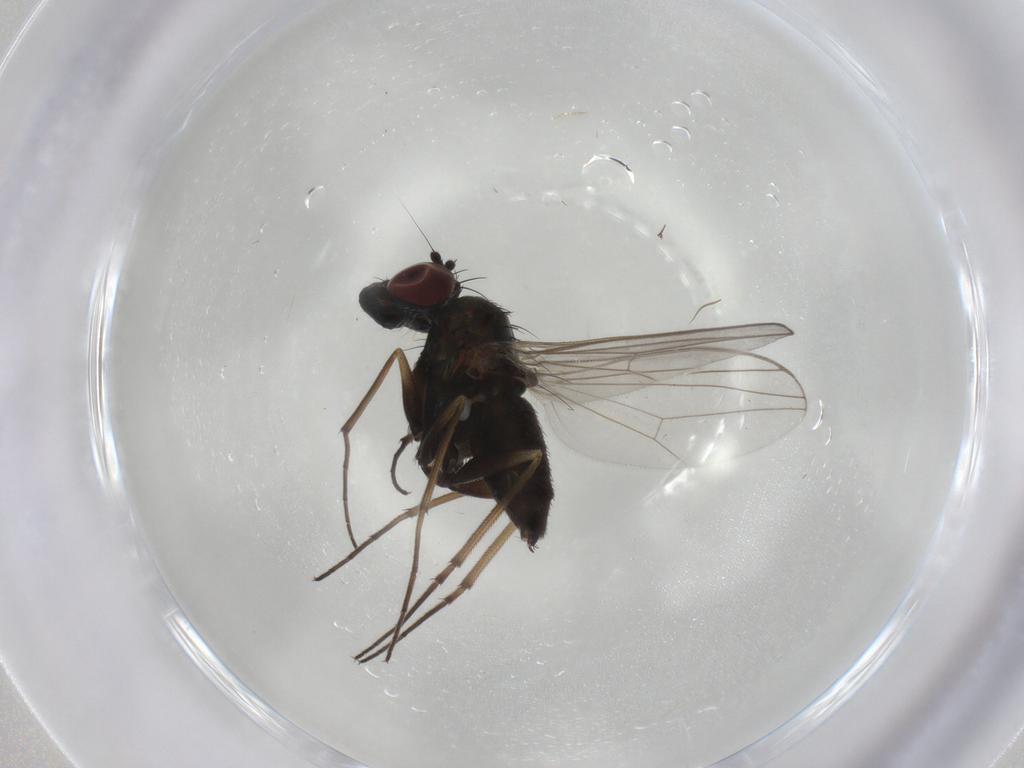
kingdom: Animalia
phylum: Arthropoda
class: Insecta
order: Diptera
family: Dolichopodidae
